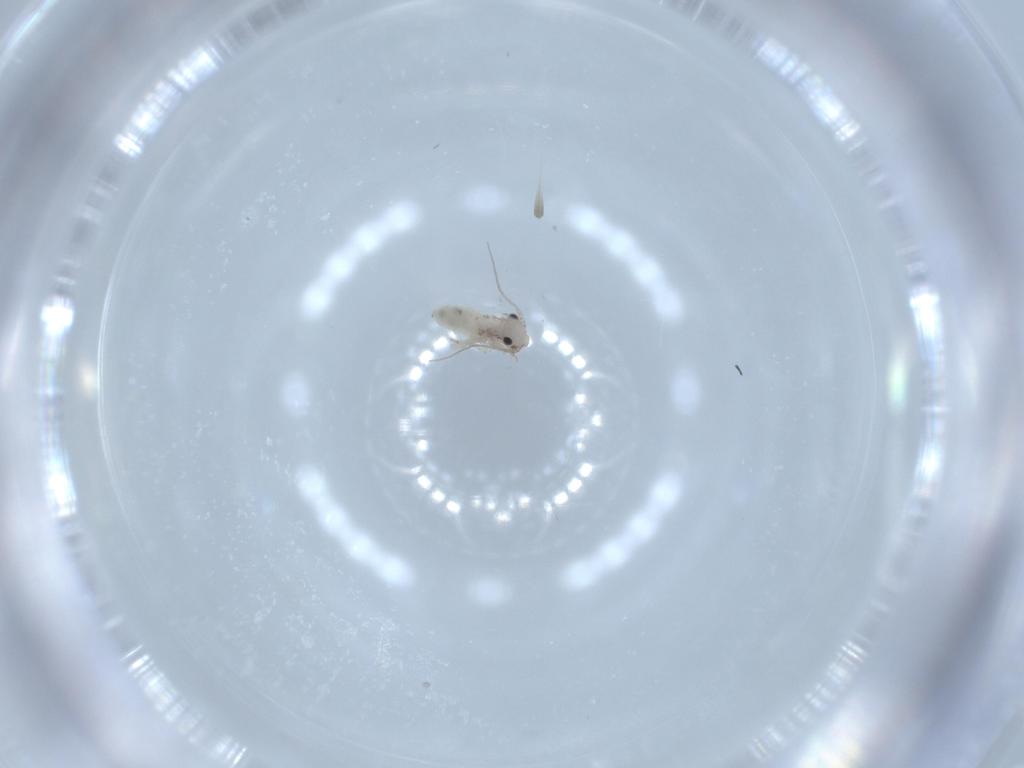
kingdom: Animalia
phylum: Arthropoda
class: Insecta
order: Psocodea
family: Lepidopsocidae
